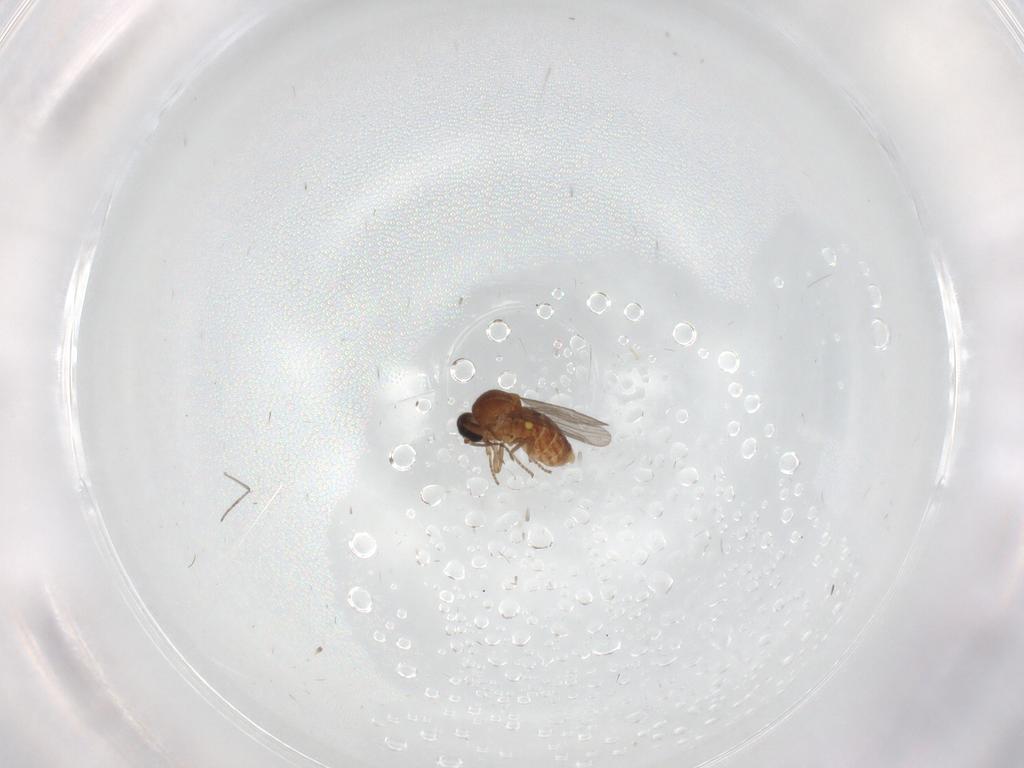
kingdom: Animalia
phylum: Arthropoda
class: Insecta
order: Diptera
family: Ceratopogonidae
